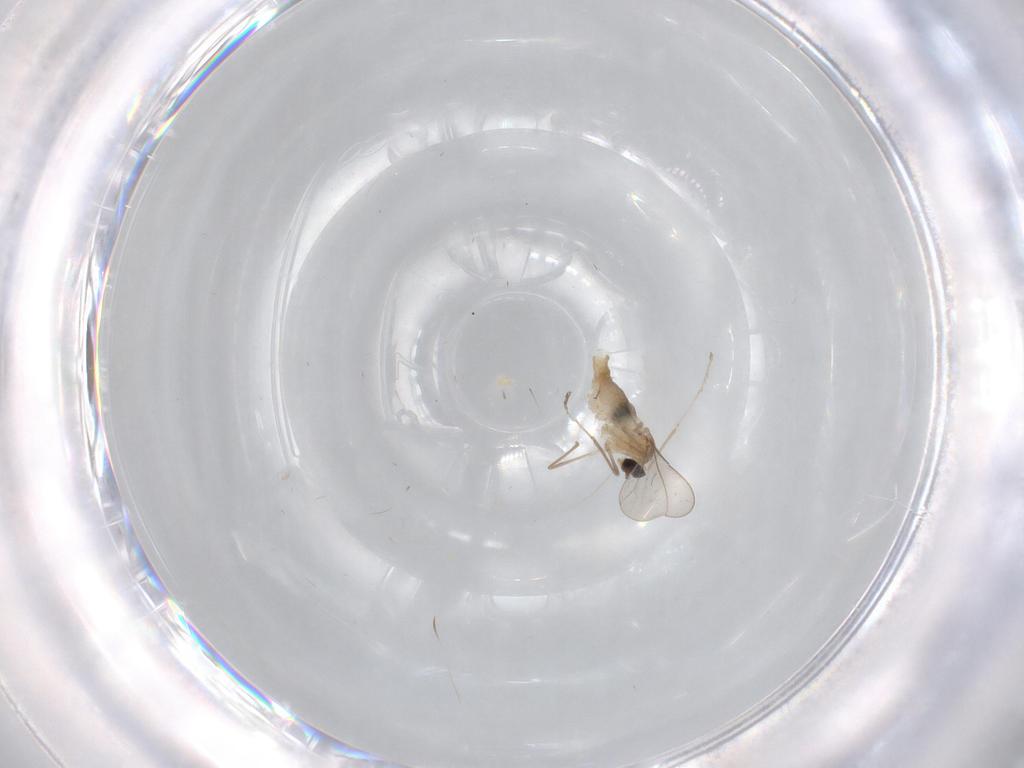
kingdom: Animalia
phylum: Arthropoda
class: Insecta
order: Diptera
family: Cecidomyiidae
